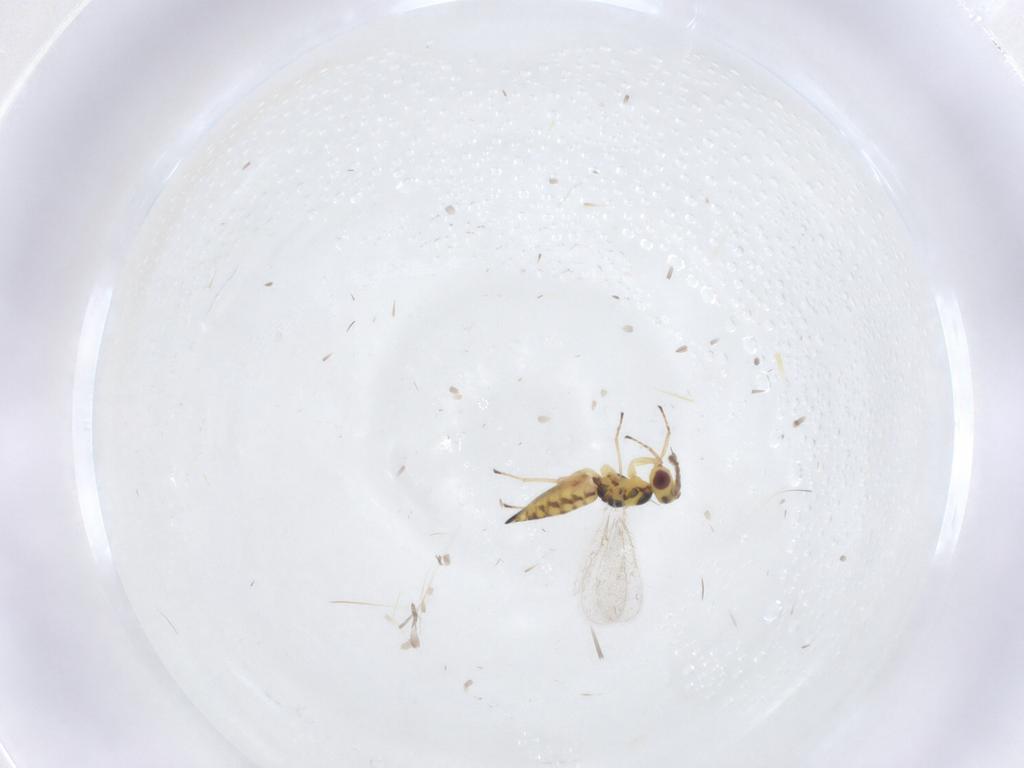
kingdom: Animalia
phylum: Arthropoda
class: Insecta
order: Hymenoptera
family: Eulophidae
